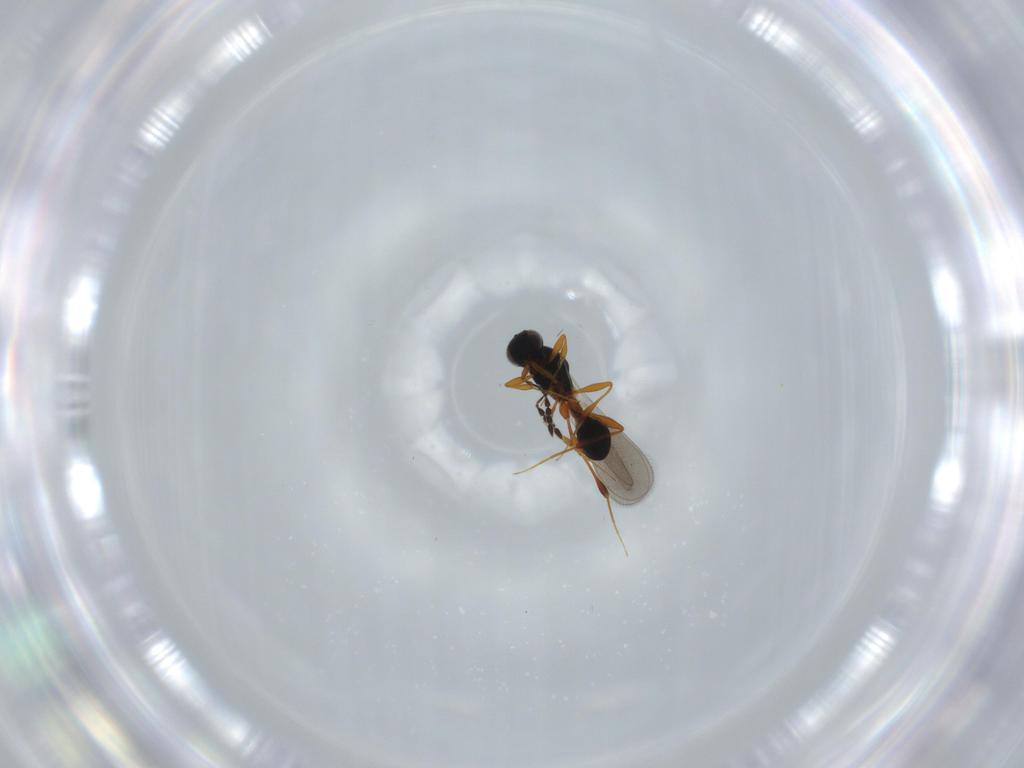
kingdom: Animalia
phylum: Arthropoda
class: Insecta
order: Hymenoptera
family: Platygastridae
